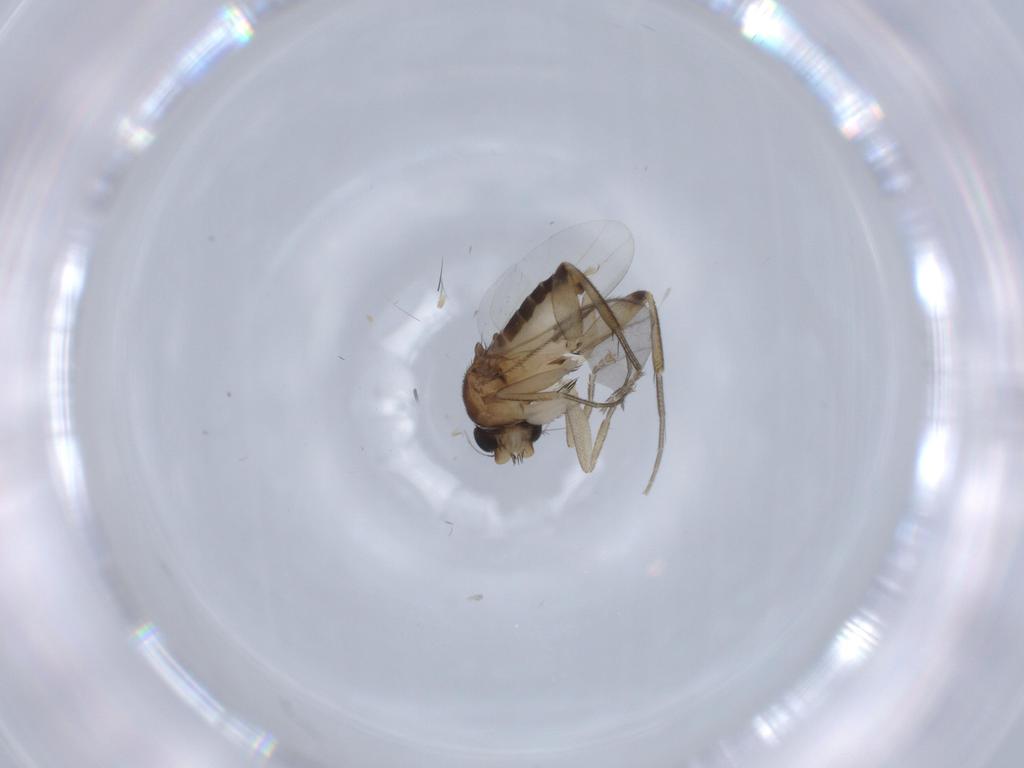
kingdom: Animalia
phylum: Arthropoda
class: Insecta
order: Diptera
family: Phoridae
